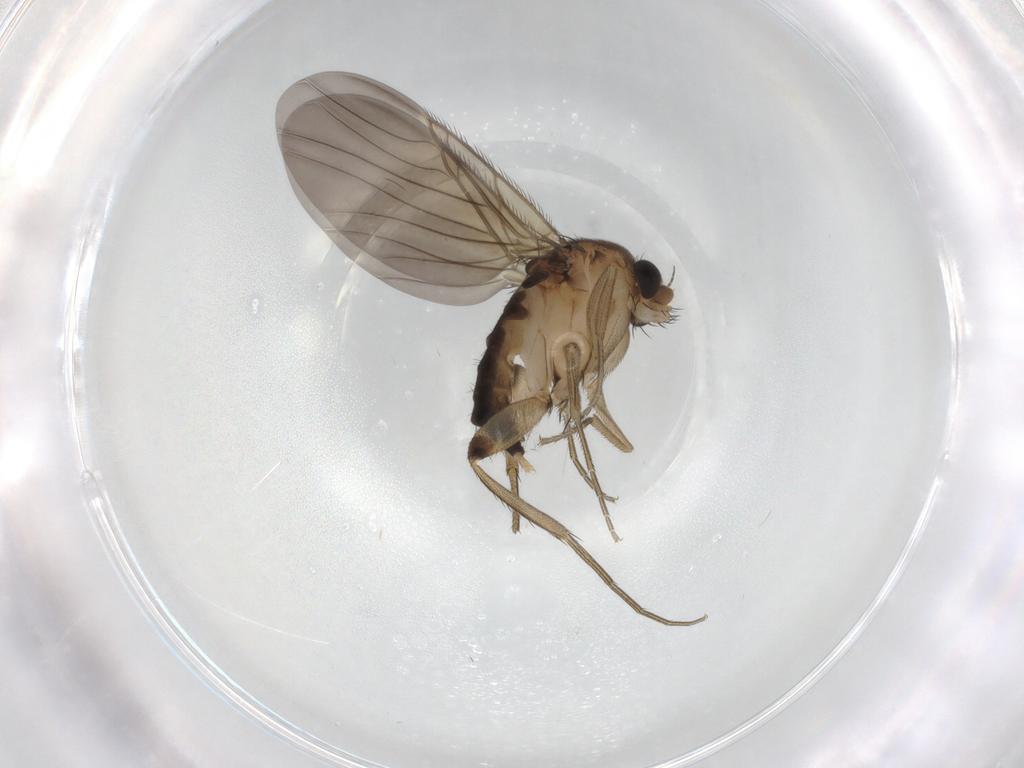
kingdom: Animalia
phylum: Arthropoda
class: Insecta
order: Diptera
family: Phoridae
